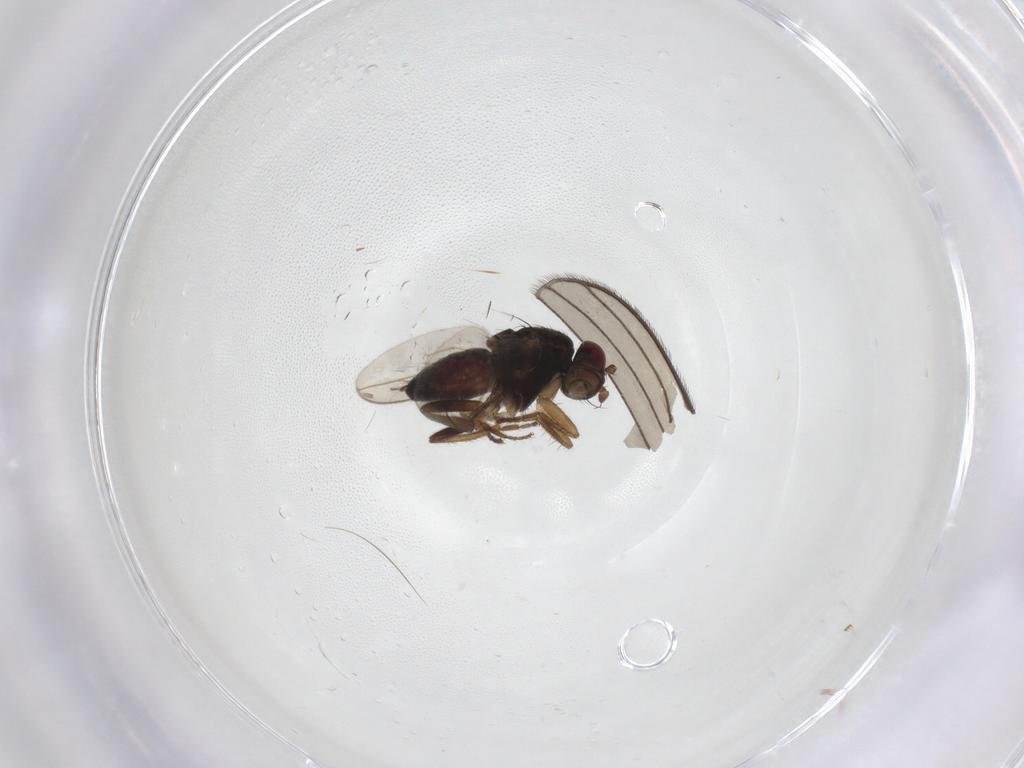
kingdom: Animalia
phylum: Arthropoda
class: Insecta
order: Diptera
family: Sphaeroceridae
